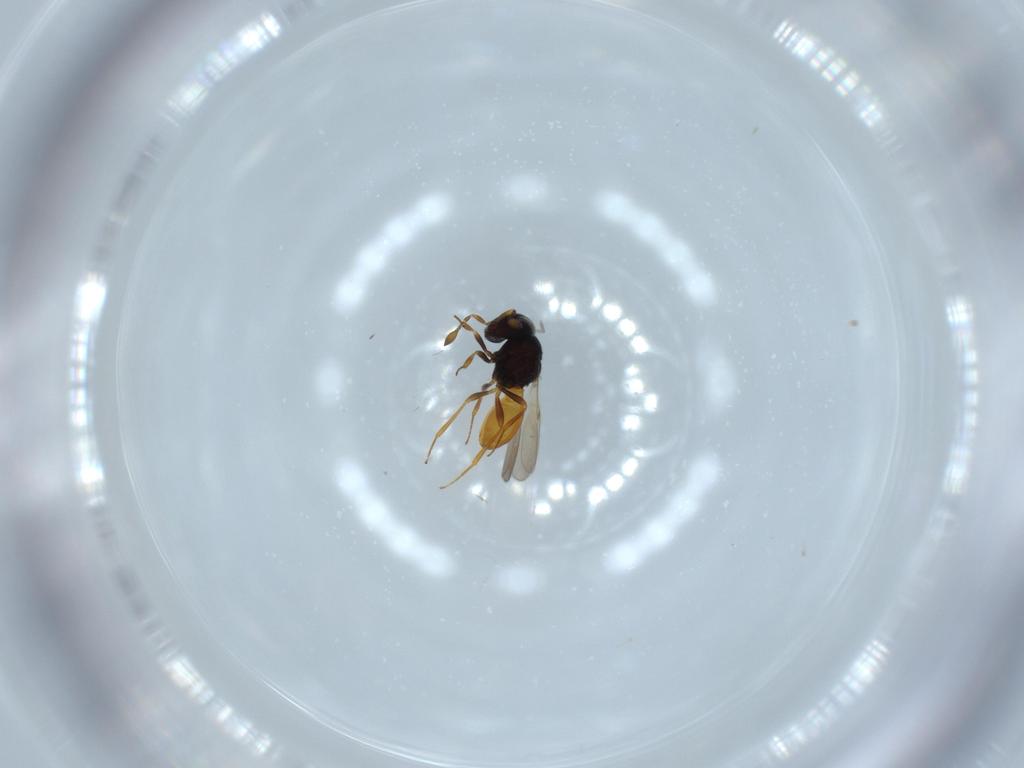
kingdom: Animalia
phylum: Arthropoda
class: Insecta
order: Hymenoptera
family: Scelionidae
